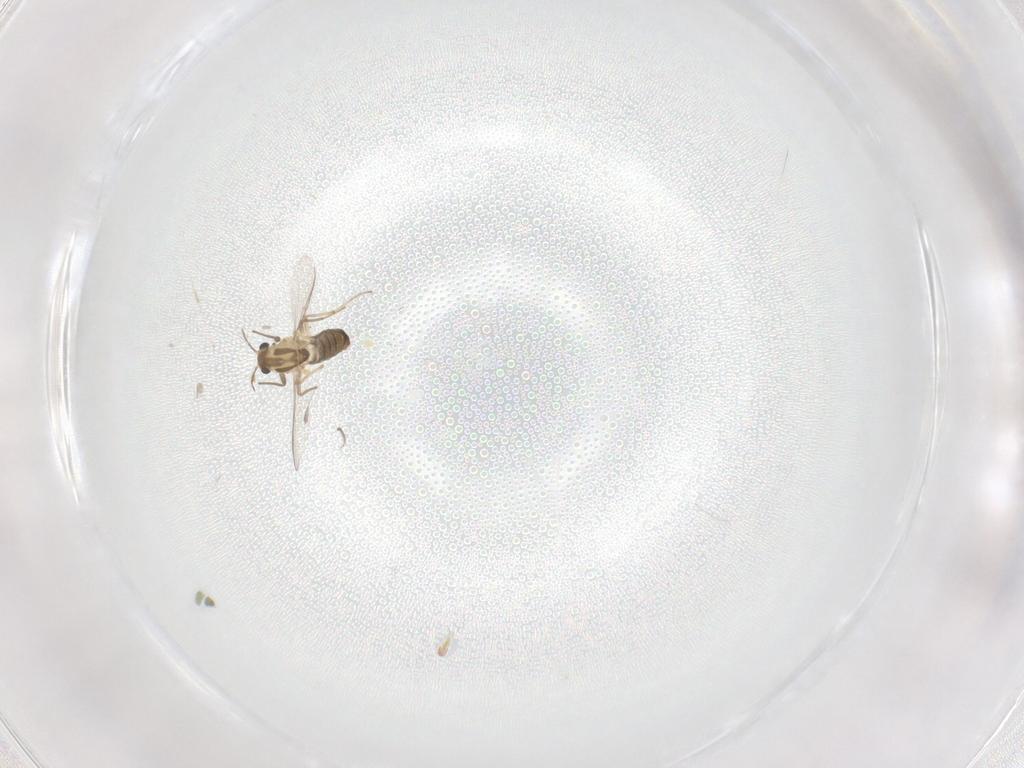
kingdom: Animalia
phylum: Arthropoda
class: Insecta
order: Diptera
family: Chironomidae
